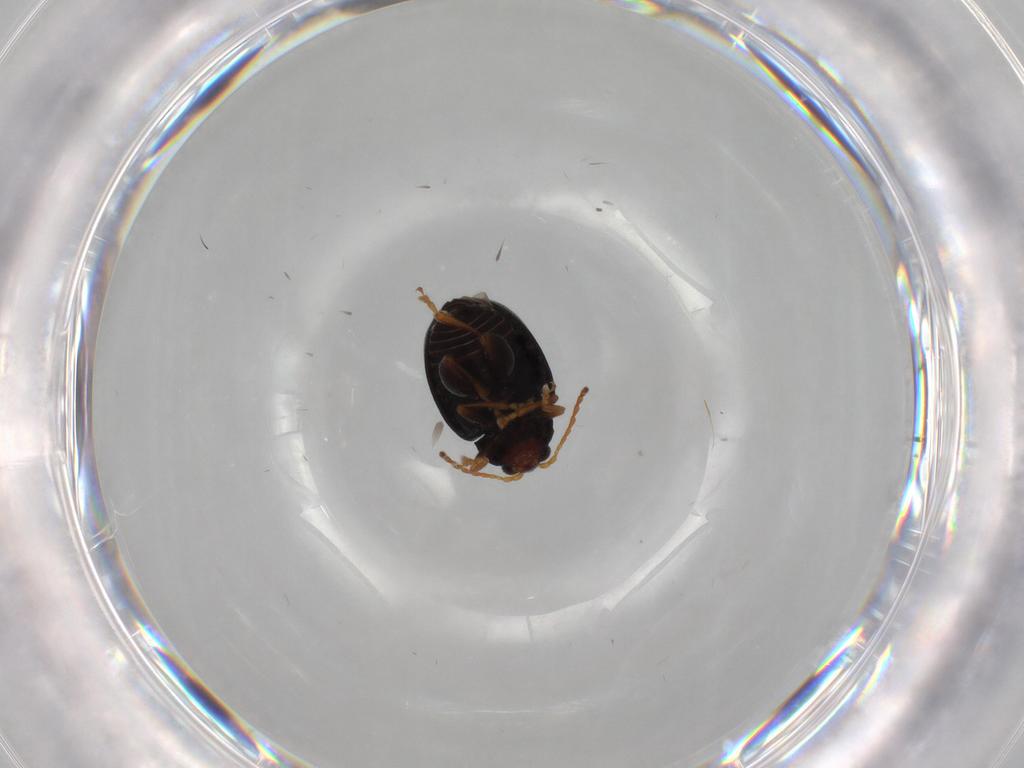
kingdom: Animalia
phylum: Arthropoda
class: Insecta
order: Coleoptera
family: Chrysomelidae
